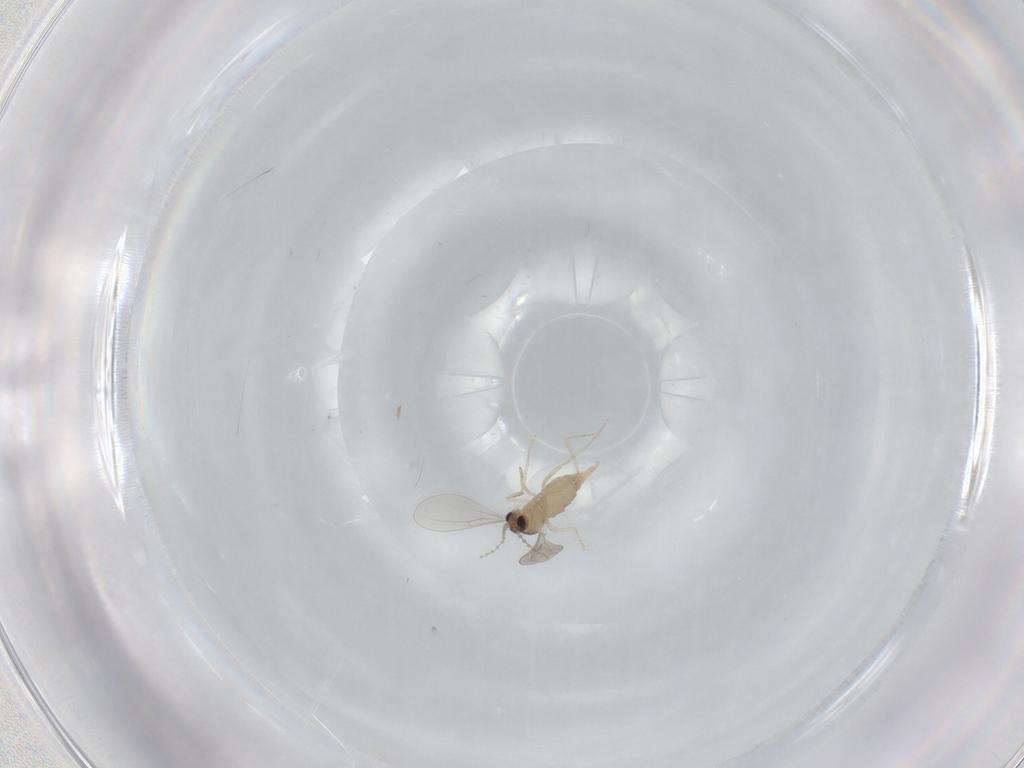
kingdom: Animalia
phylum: Arthropoda
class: Insecta
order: Diptera
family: Cecidomyiidae
